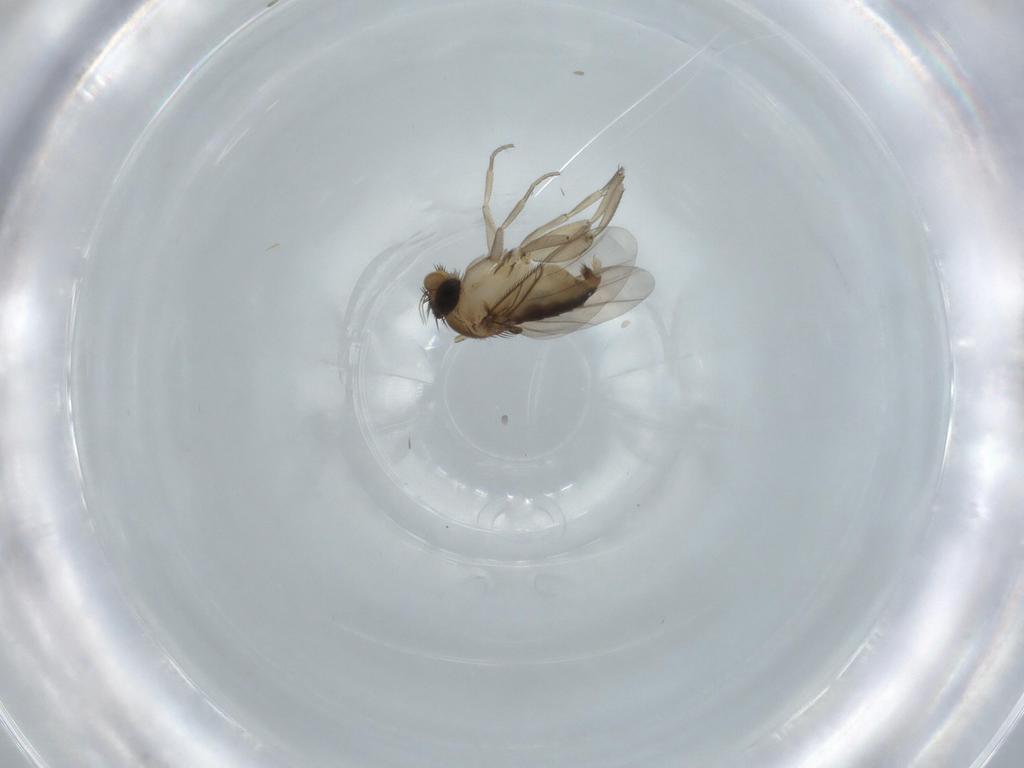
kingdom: Animalia
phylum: Arthropoda
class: Insecta
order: Diptera
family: Phoridae
